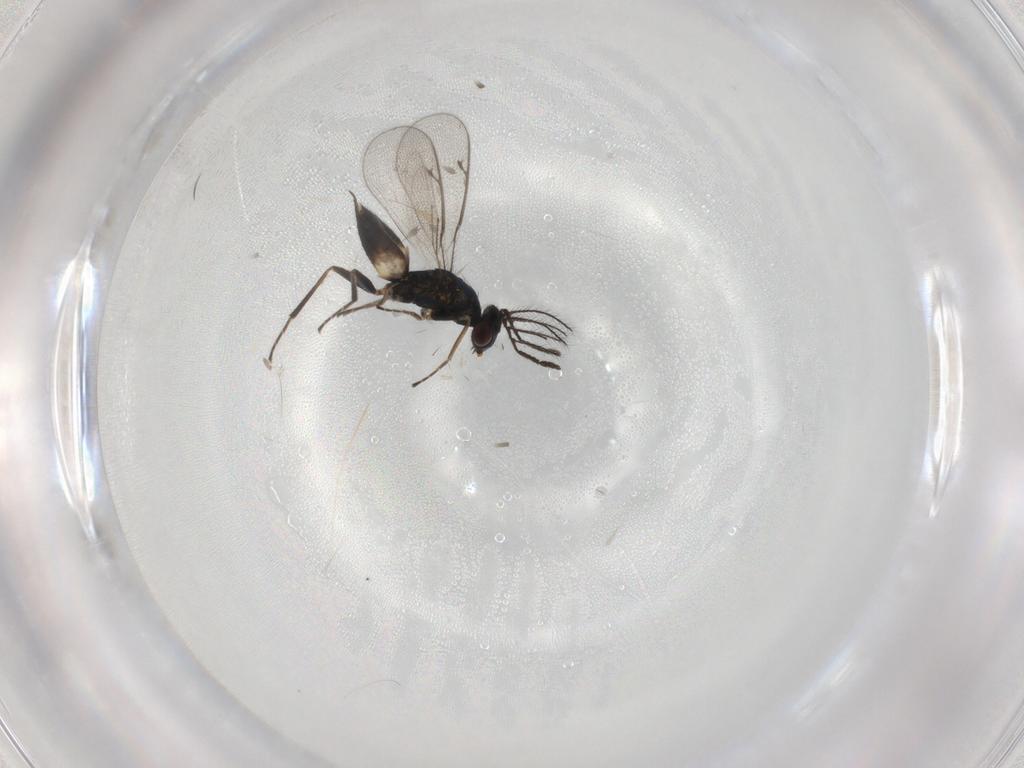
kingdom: Animalia
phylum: Arthropoda
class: Insecta
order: Hymenoptera
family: Eulophidae
